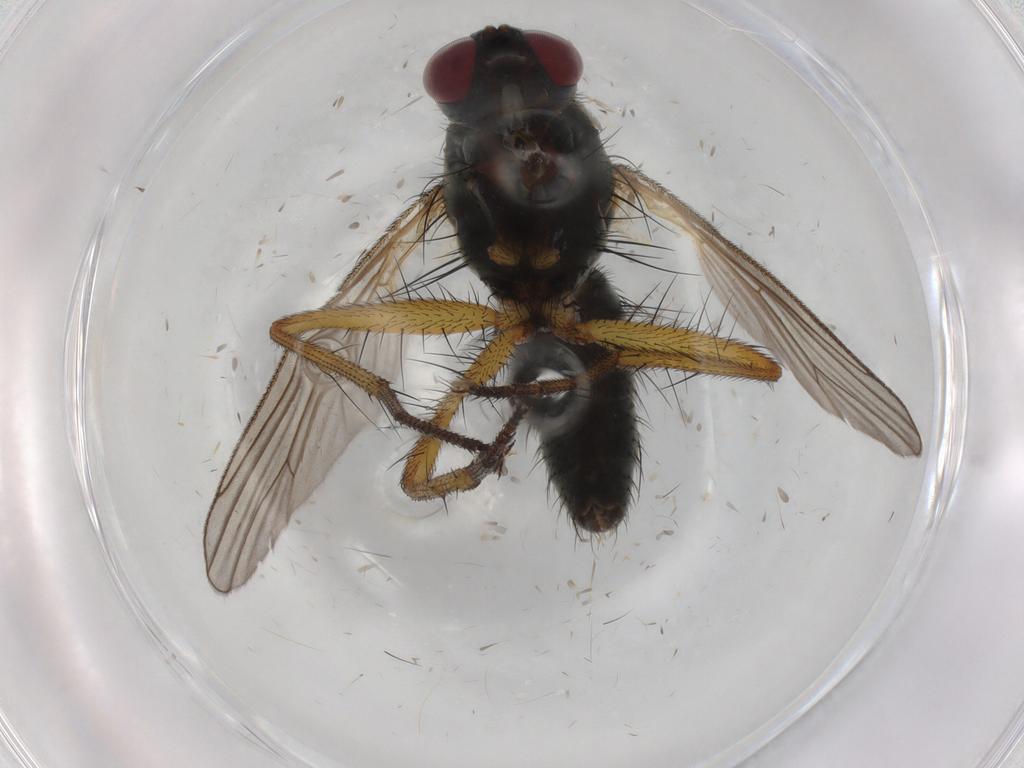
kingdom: Animalia
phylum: Arthropoda
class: Insecta
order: Diptera
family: Muscidae
